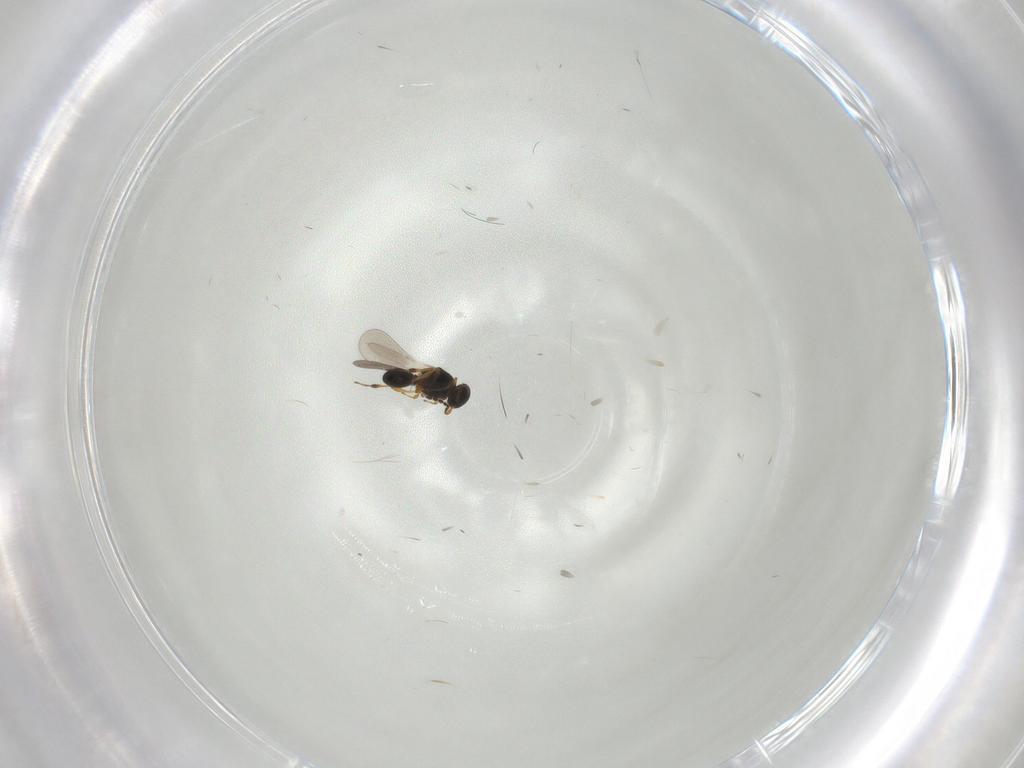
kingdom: Animalia
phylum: Arthropoda
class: Insecta
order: Hymenoptera
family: Platygastridae
